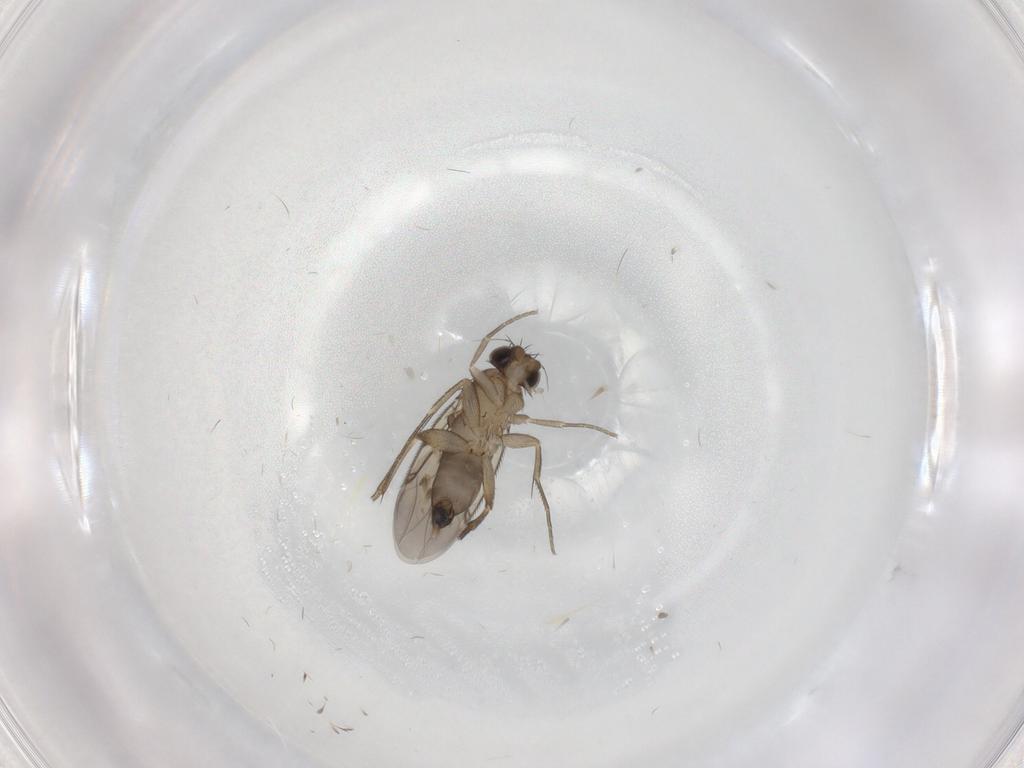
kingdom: Animalia
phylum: Arthropoda
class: Insecta
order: Diptera
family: Phoridae
